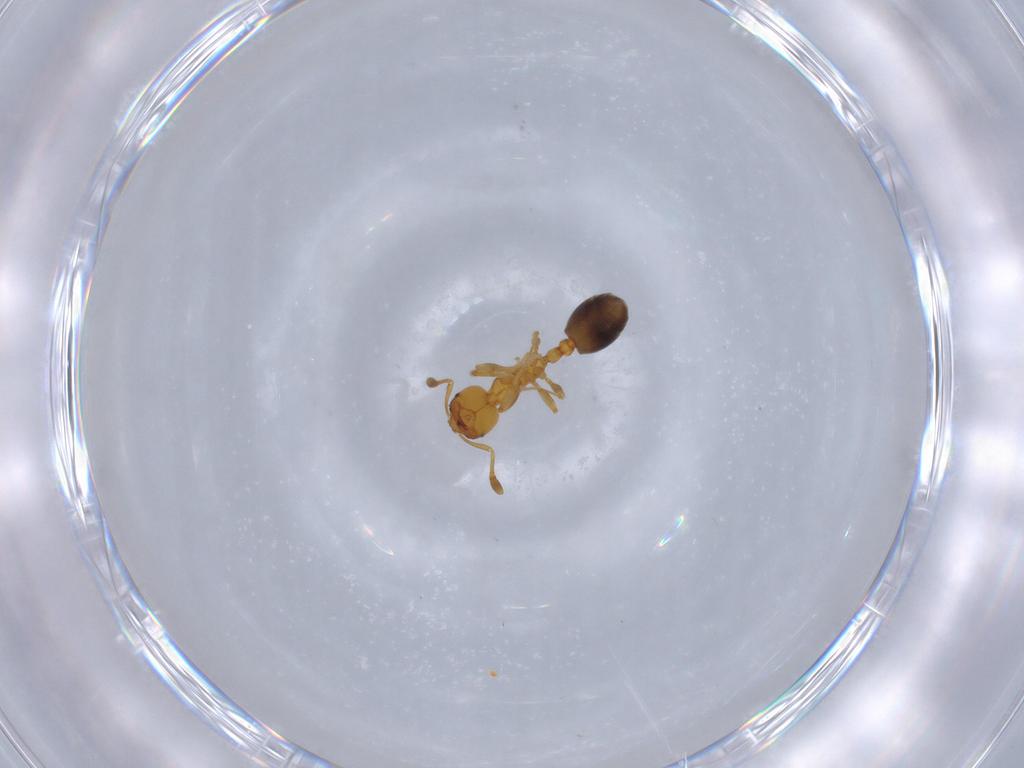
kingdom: Animalia
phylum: Arthropoda
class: Insecta
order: Hymenoptera
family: Formicidae
